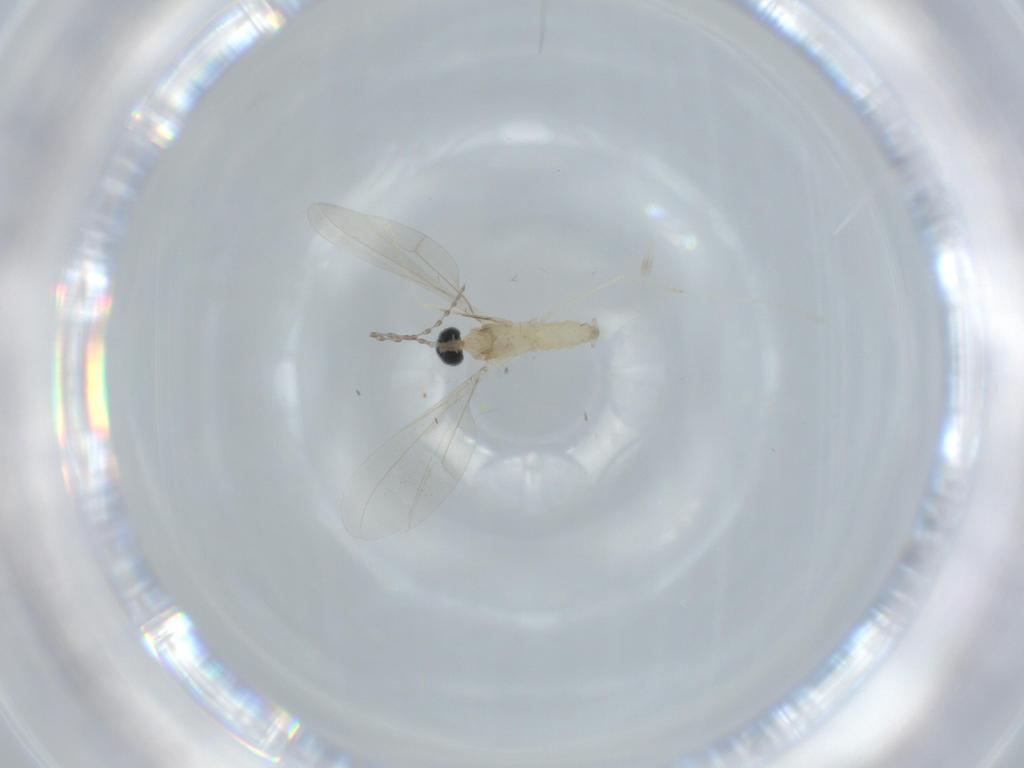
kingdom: Animalia
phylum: Arthropoda
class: Insecta
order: Diptera
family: Cecidomyiidae
